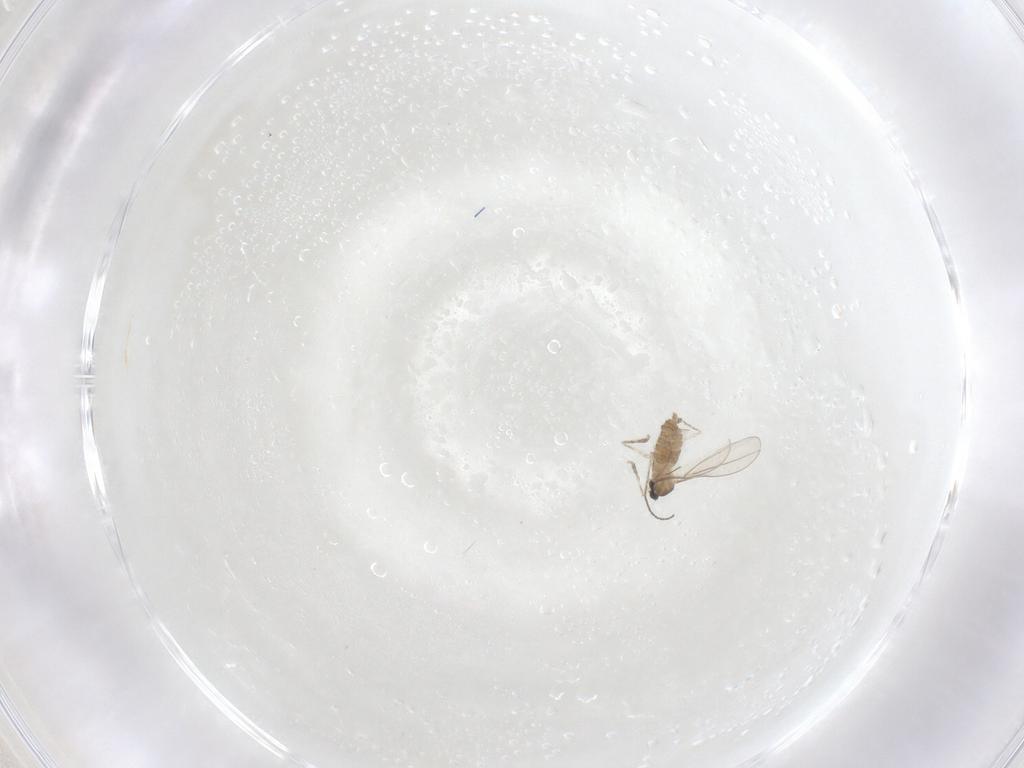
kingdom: Animalia
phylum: Arthropoda
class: Insecta
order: Diptera
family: Cecidomyiidae
